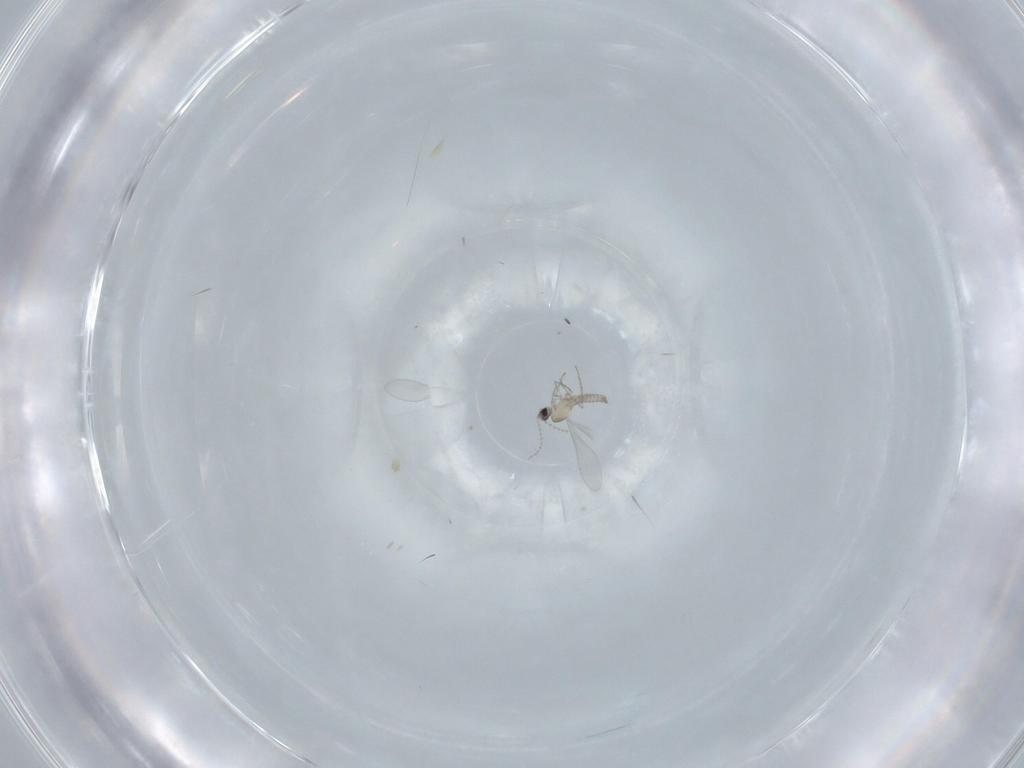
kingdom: Animalia
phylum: Arthropoda
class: Insecta
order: Diptera
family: Cecidomyiidae
